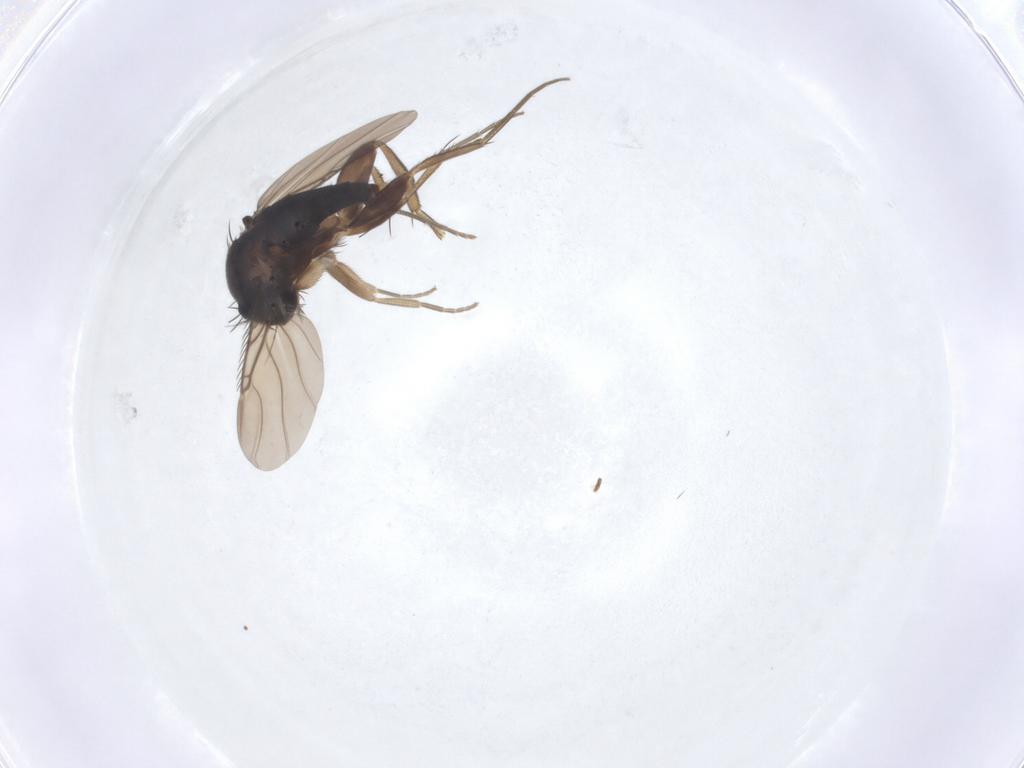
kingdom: Animalia
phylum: Arthropoda
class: Insecta
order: Diptera
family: Phoridae
